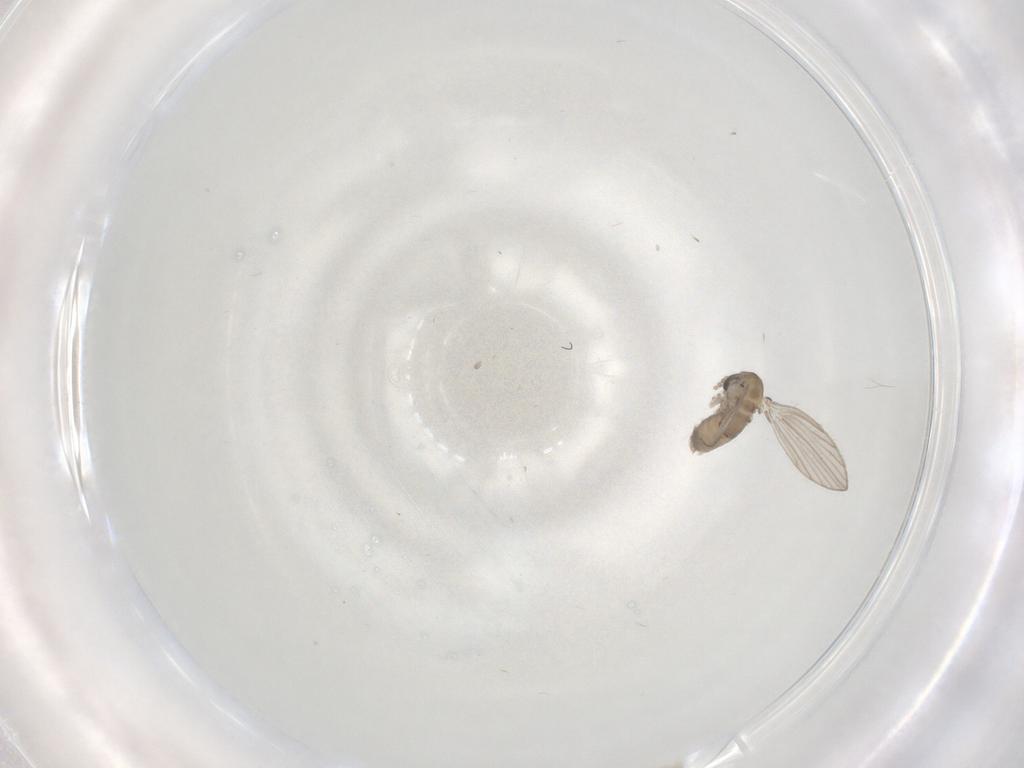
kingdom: Animalia
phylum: Arthropoda
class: Insecta
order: Diptera
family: Psychodidae
